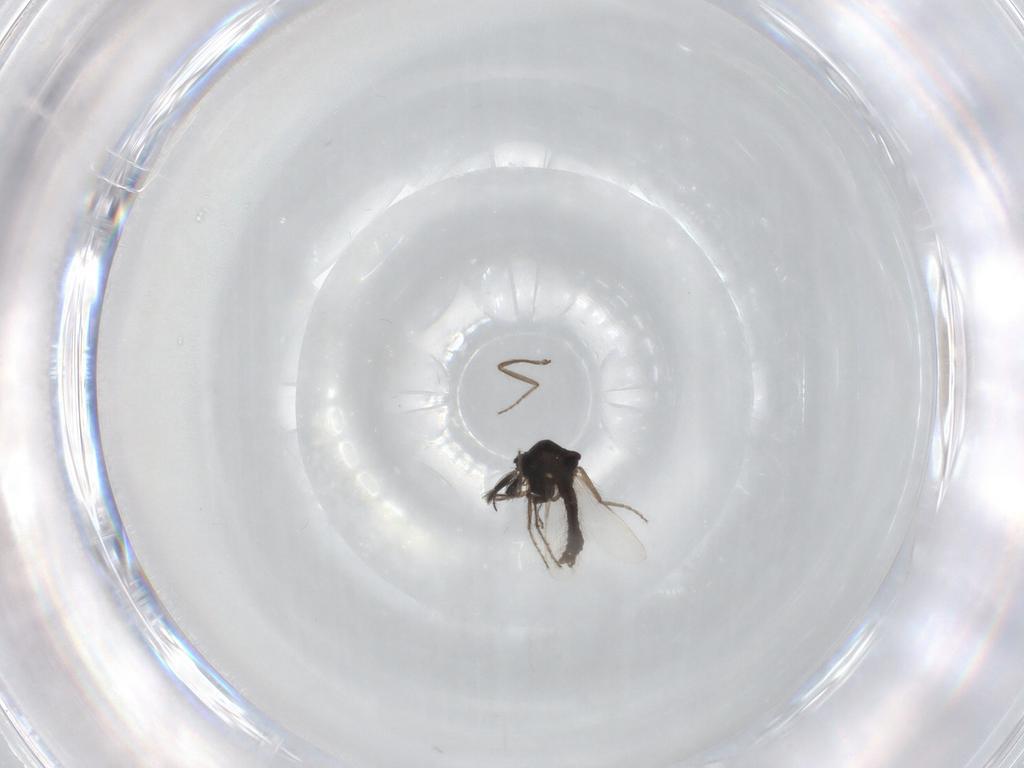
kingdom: Animalia
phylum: Arthropoda
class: Insecta
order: Diptera
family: Ceratopogonidae
